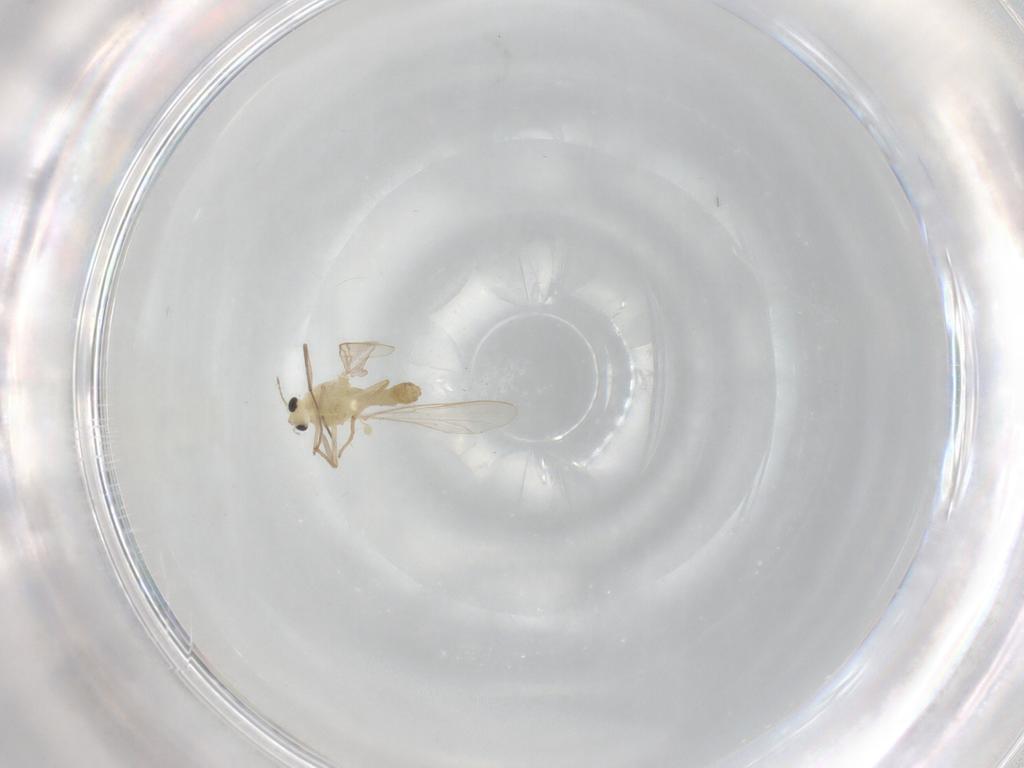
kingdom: Animalia
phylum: Arthropoda
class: Insecta
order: Diptera
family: Chironomidae
